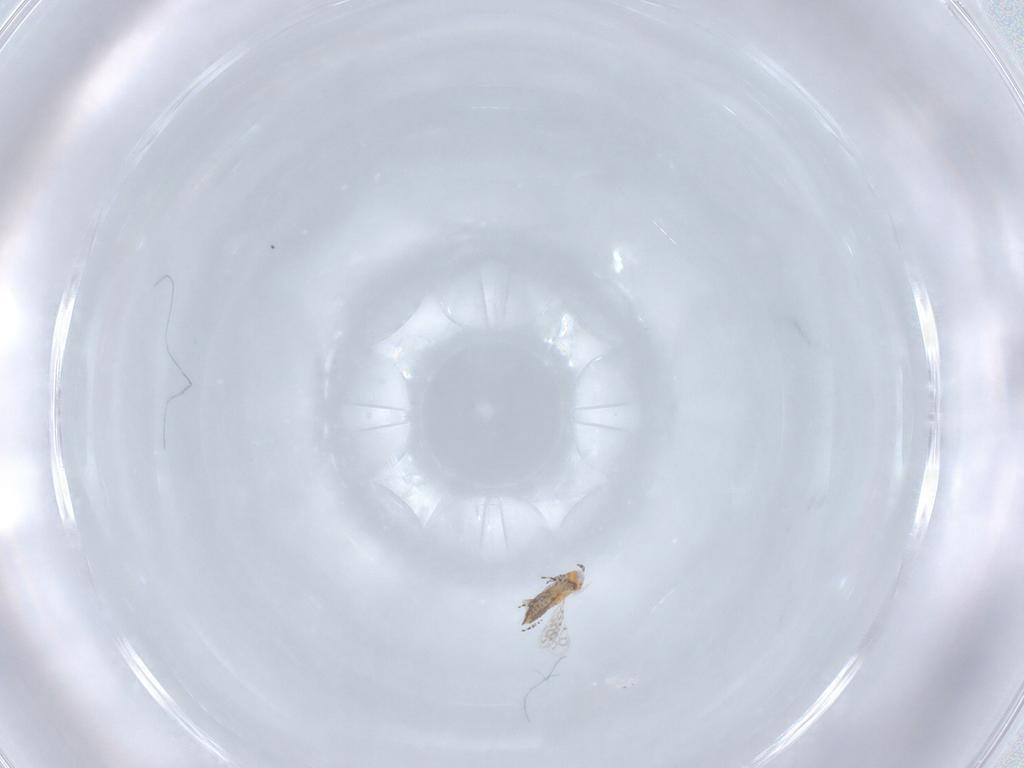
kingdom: Animalia
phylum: Arthropoda
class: Insecta
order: Hymenoptera
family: Aphelinidae
